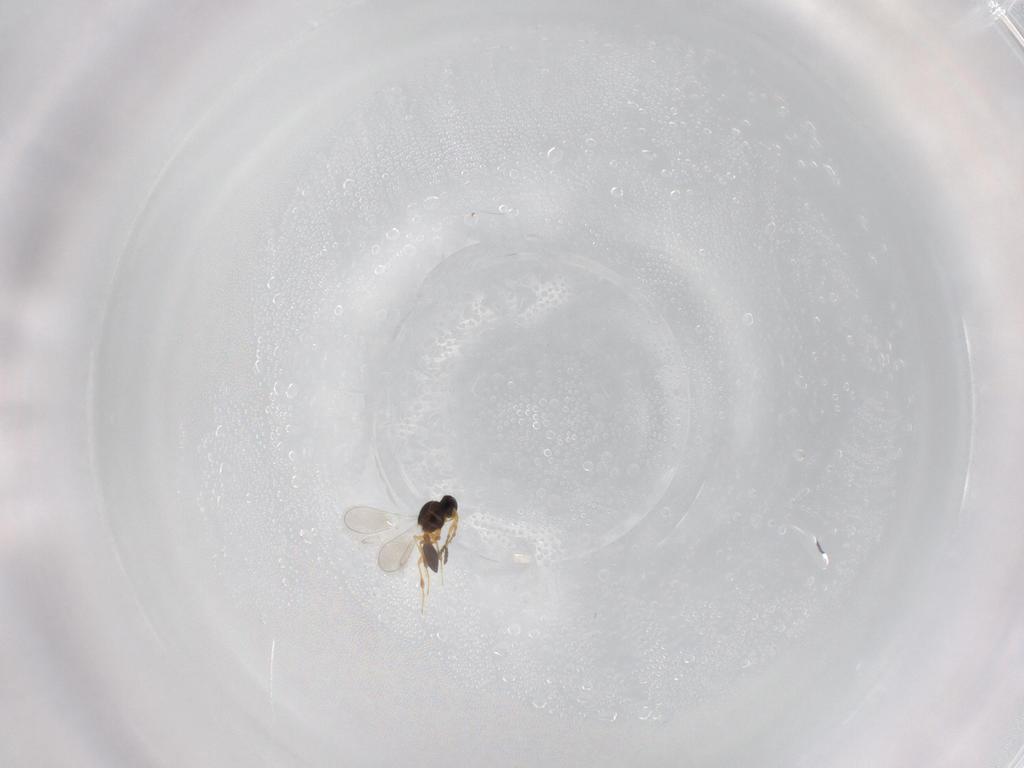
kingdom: Animalia
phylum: Arthropoda
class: Insecta
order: Hymenoptera
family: Platygastridae
